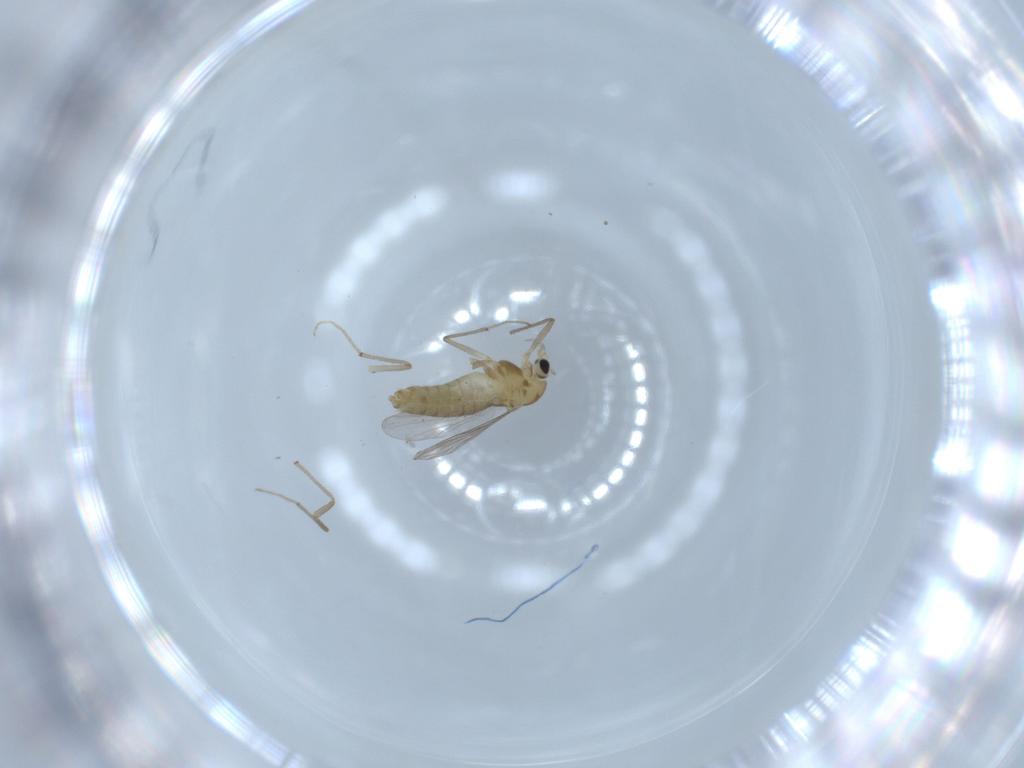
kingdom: Animalia
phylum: Arthropoda
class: Insecta
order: Diptera
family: Chironomidae
